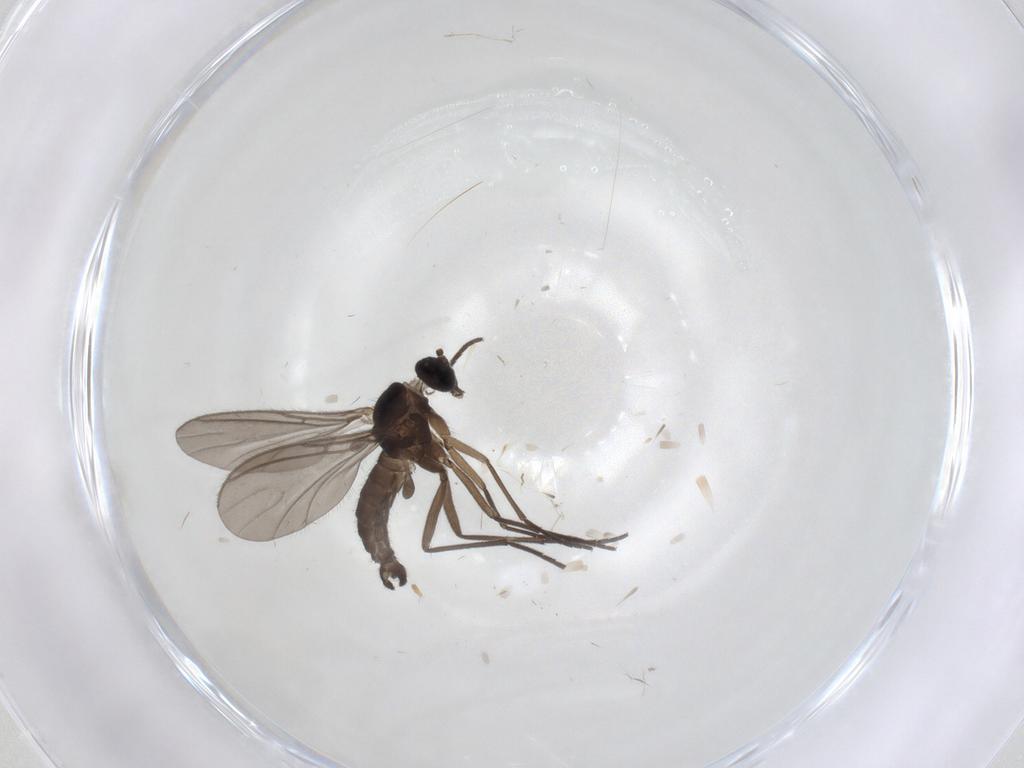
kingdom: Animalia
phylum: Arthropoda
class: Insecta
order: Diptera
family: Sciaridae
